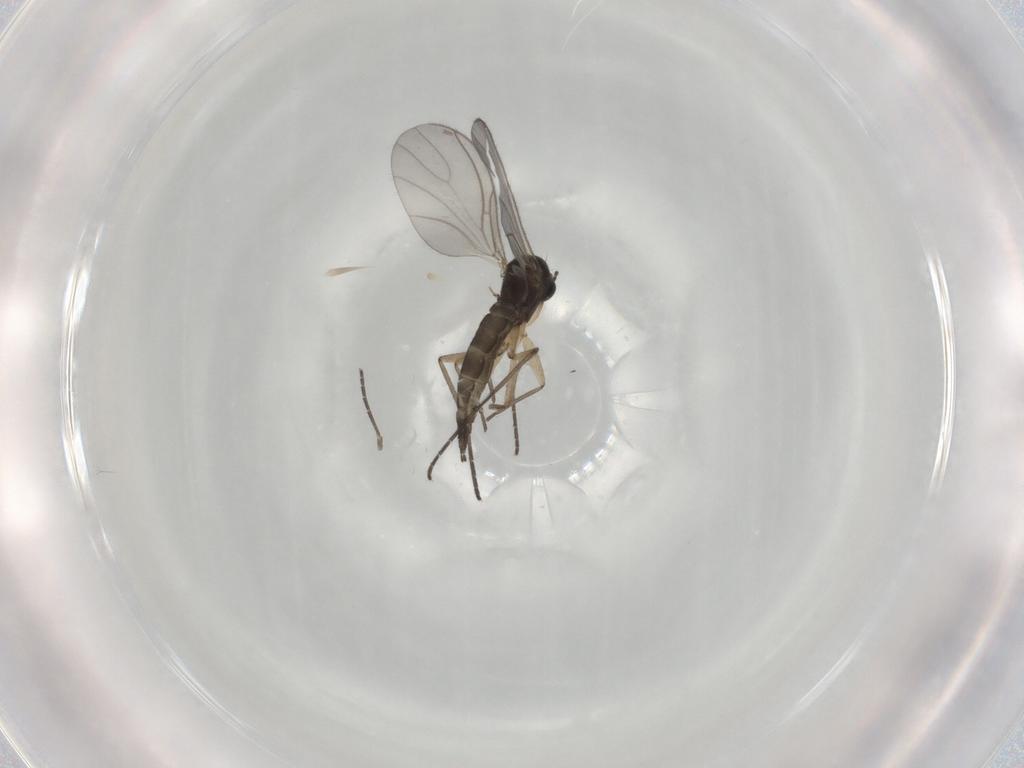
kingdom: Animalia
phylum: Arthropoda
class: Insecta
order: Diptera
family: Sciaridae
